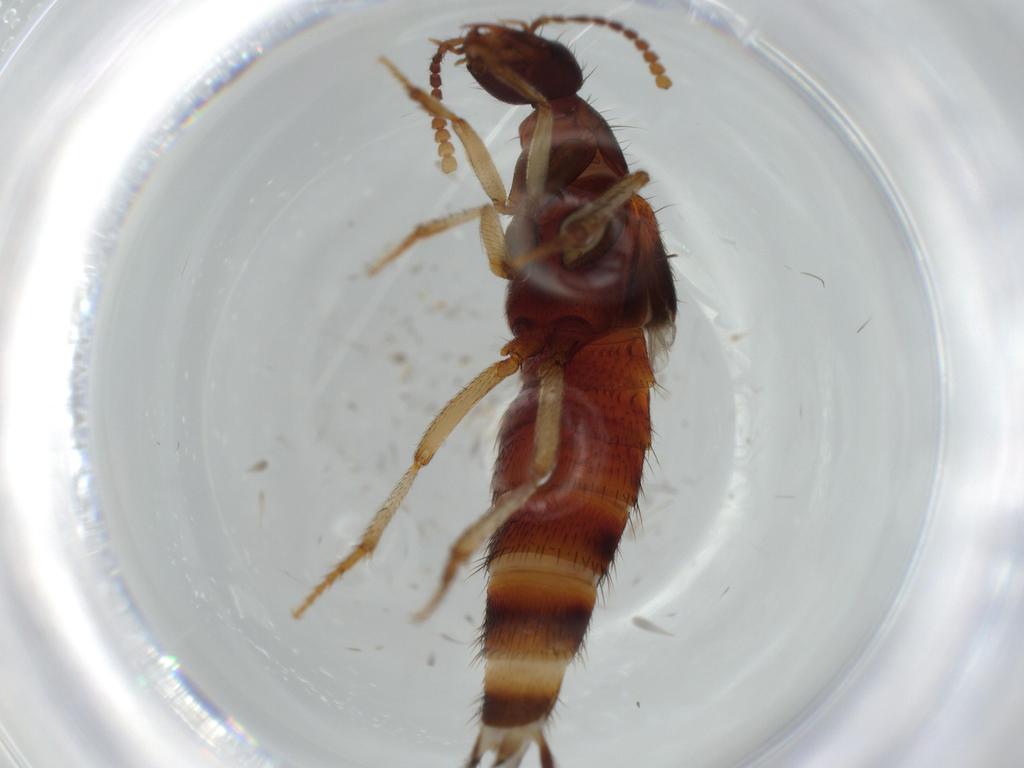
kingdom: Animalia
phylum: Arthropoda
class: Insecta
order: Coleoptera
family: Staphylinidae
